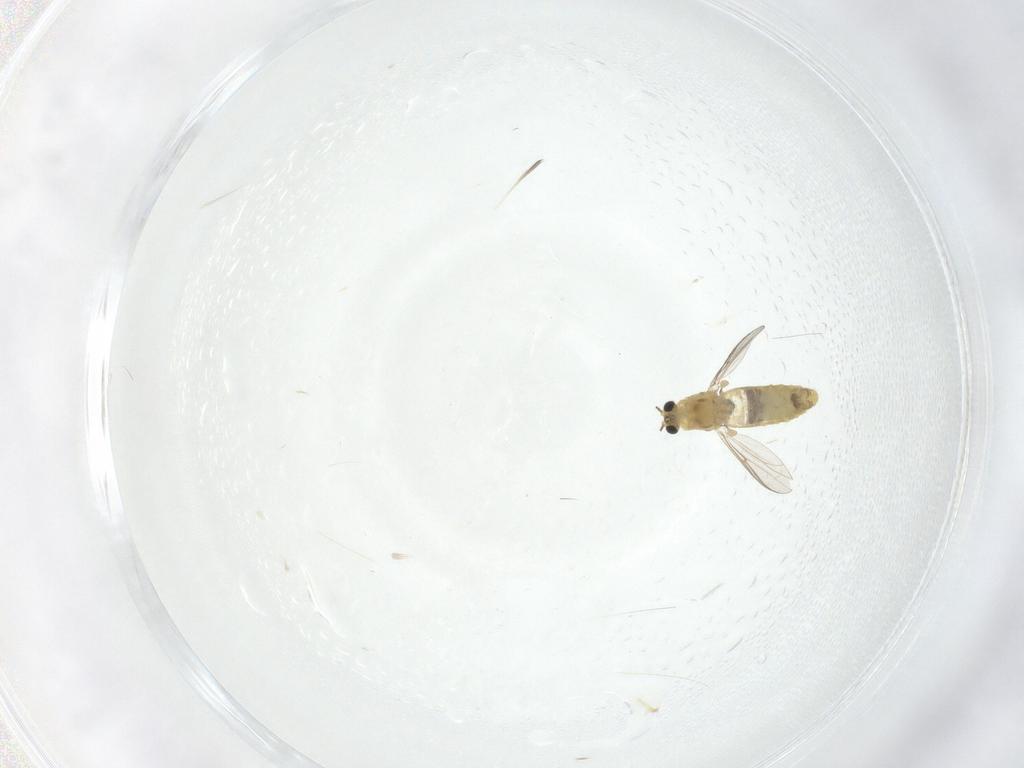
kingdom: Animalia
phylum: Arthropoda
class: Insecta
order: Diptera
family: Chironomidae
